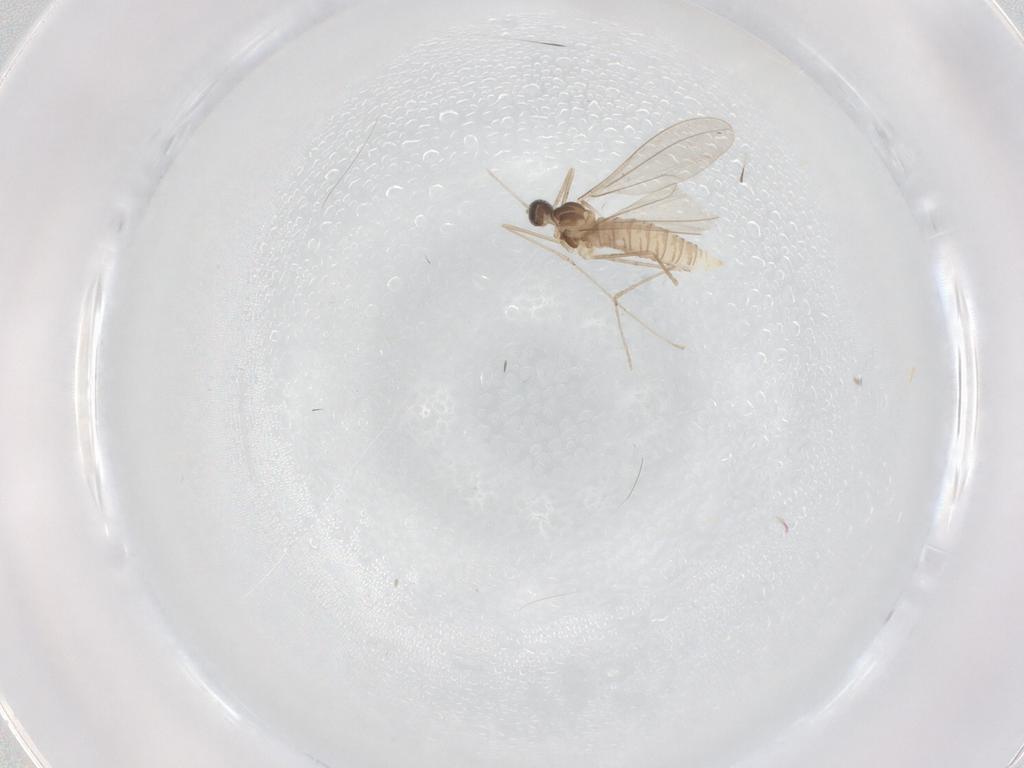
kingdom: Animalia
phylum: Arthropoda
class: Insecta
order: Diptera
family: Cecidomyiidae
